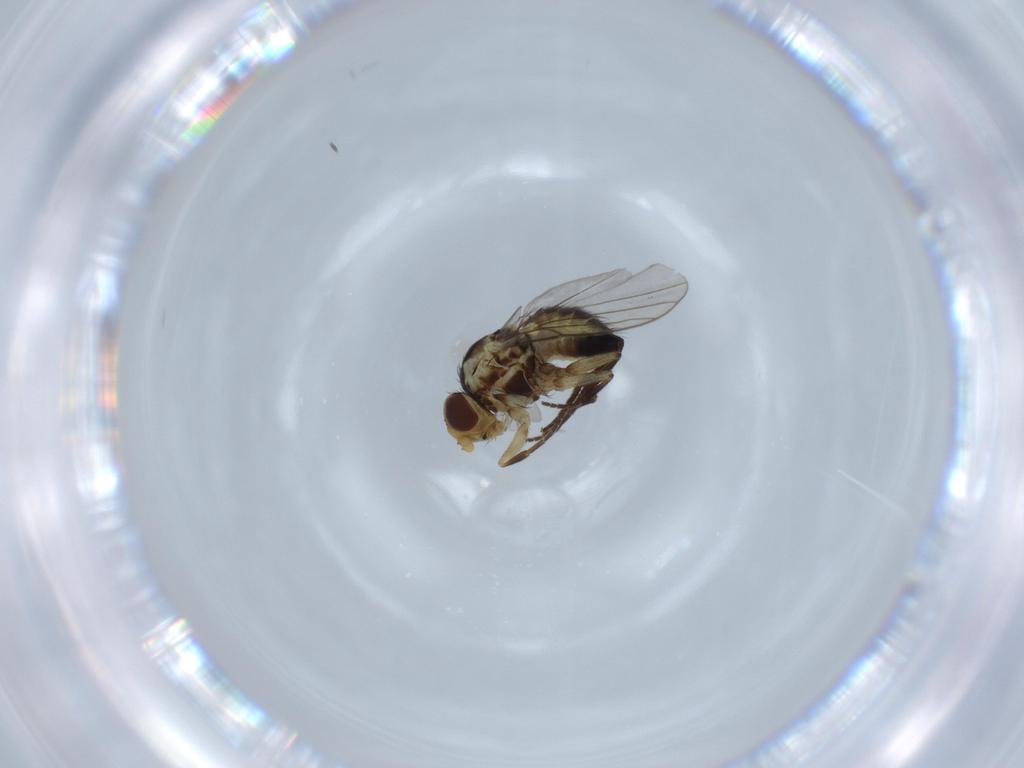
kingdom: Animalia
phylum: Arthropoda
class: Insecta
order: Diptera
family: Agromyzidae
